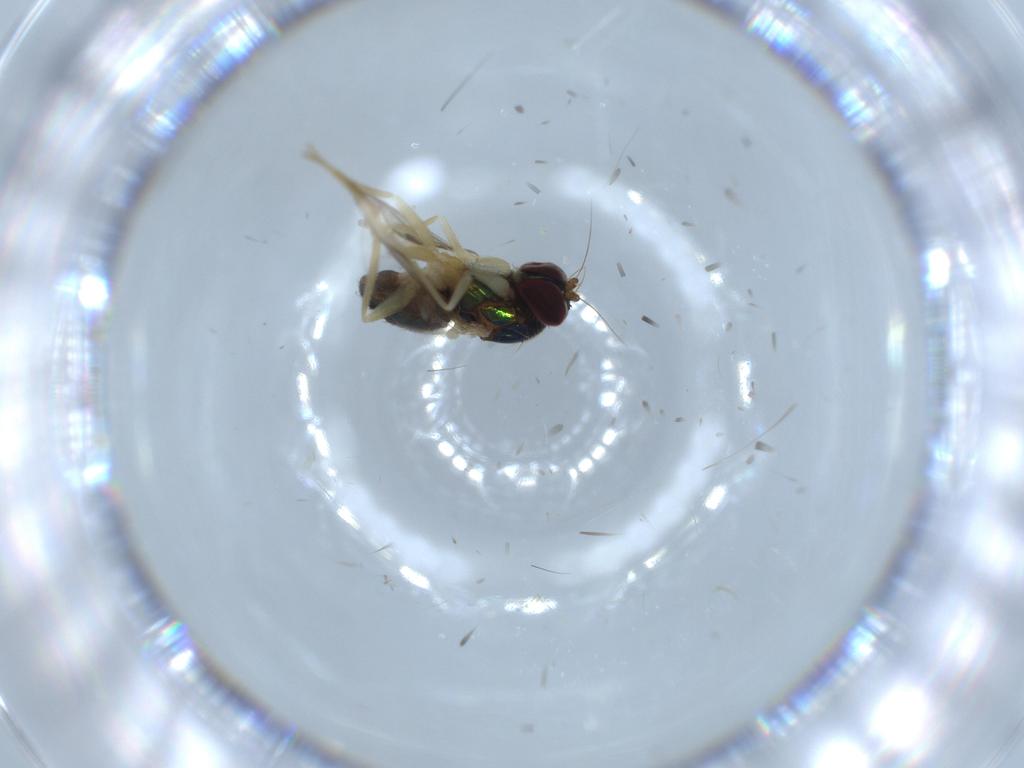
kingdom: Animalia
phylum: Arthropoda
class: Insecta
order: Diptera
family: Dolichopodidae
